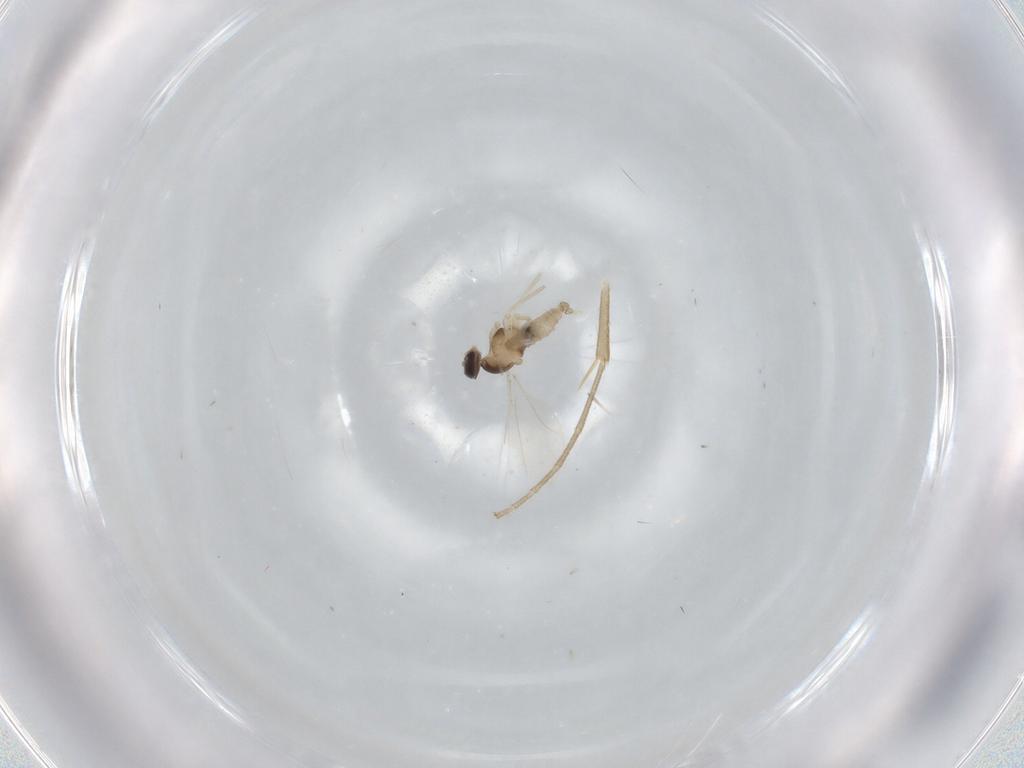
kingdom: Animalia
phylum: Arthropoda
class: Insecta
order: Diptera
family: Cecidomyiidae
